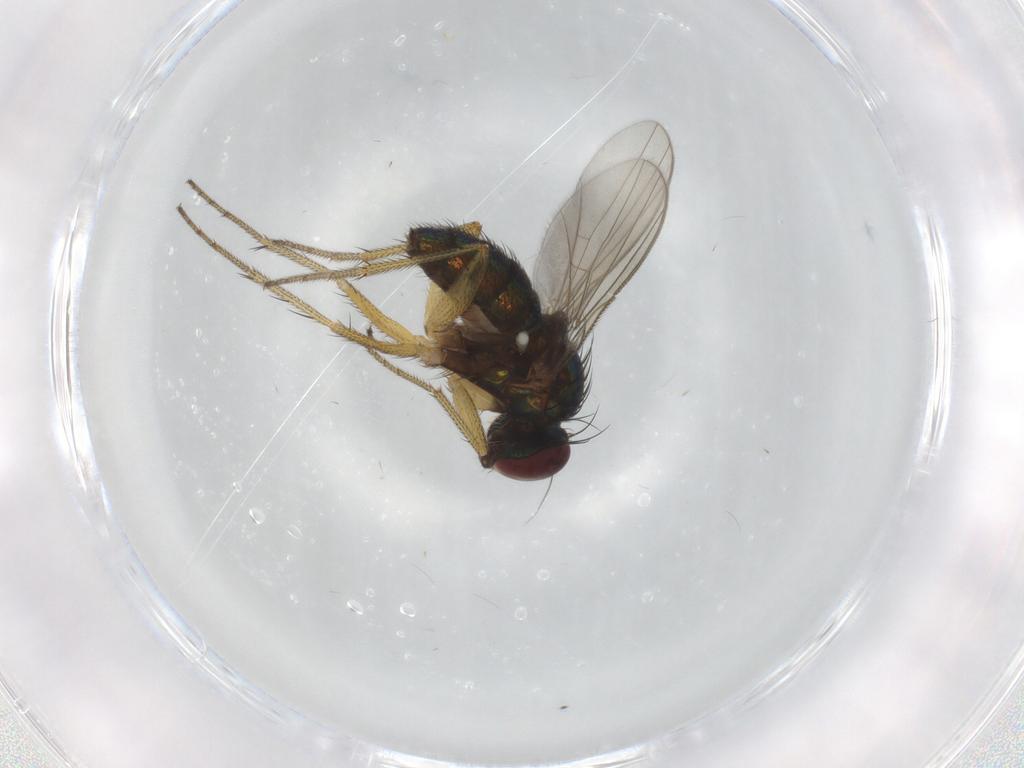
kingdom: Animalia
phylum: Arthropoda
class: Insecta
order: Diptera
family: Dolichopodidae
